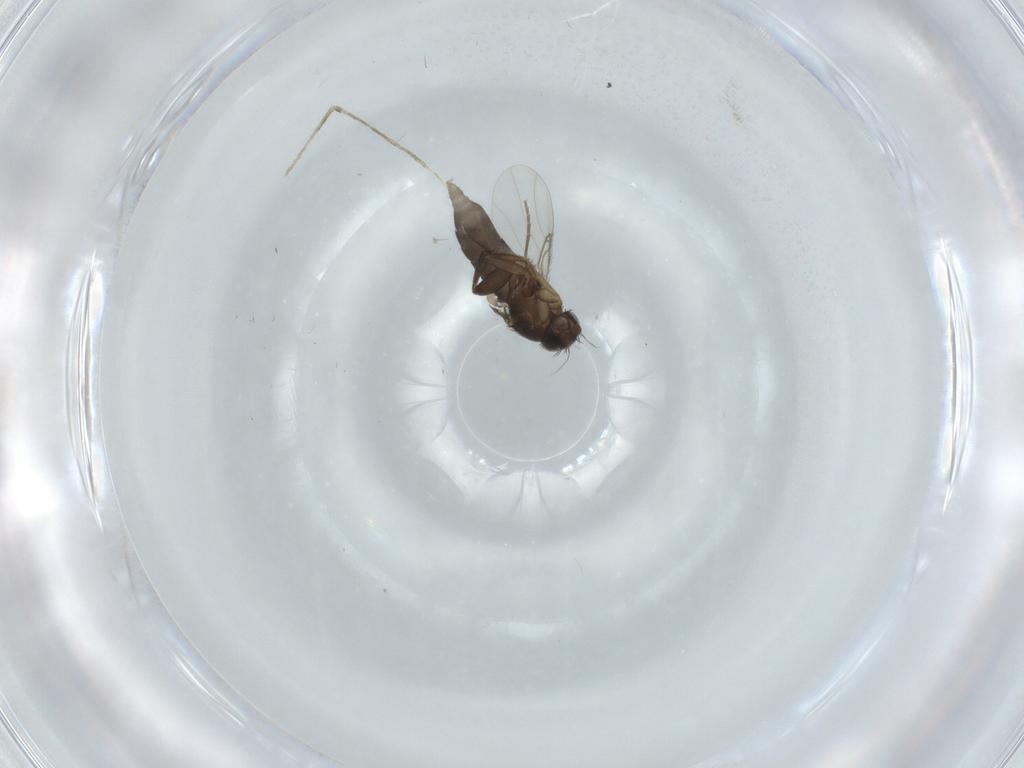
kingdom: Animalia
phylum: Arthropoda
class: Insecta
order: Diptera
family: Phoridae
